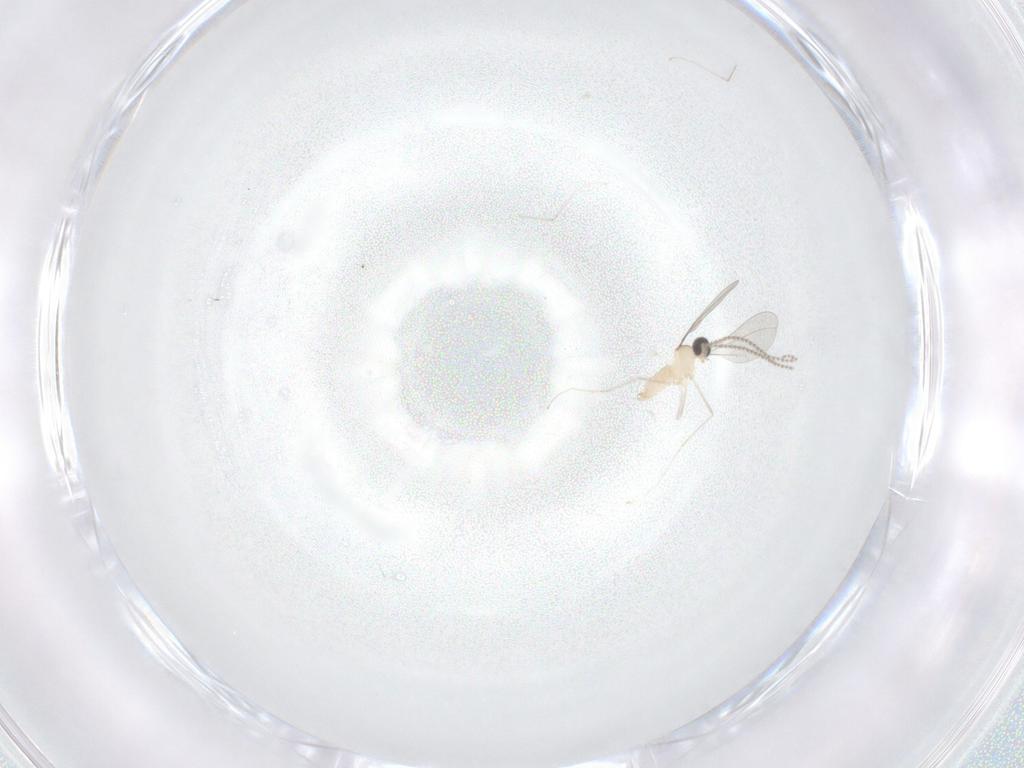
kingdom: Animalia
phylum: Arthropoda
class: Insecta
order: Diptera
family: Cecidomyiidae
